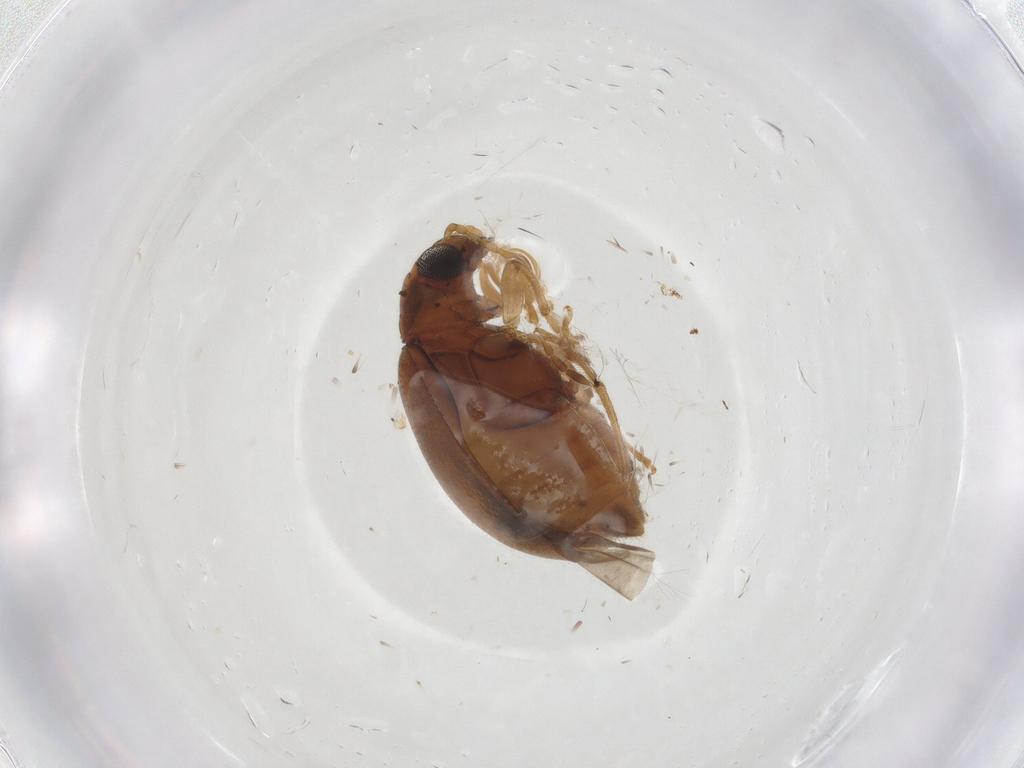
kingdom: Animalia
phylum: Arthropoda
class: Insecta
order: Coleoptera
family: Chrysomelidae
